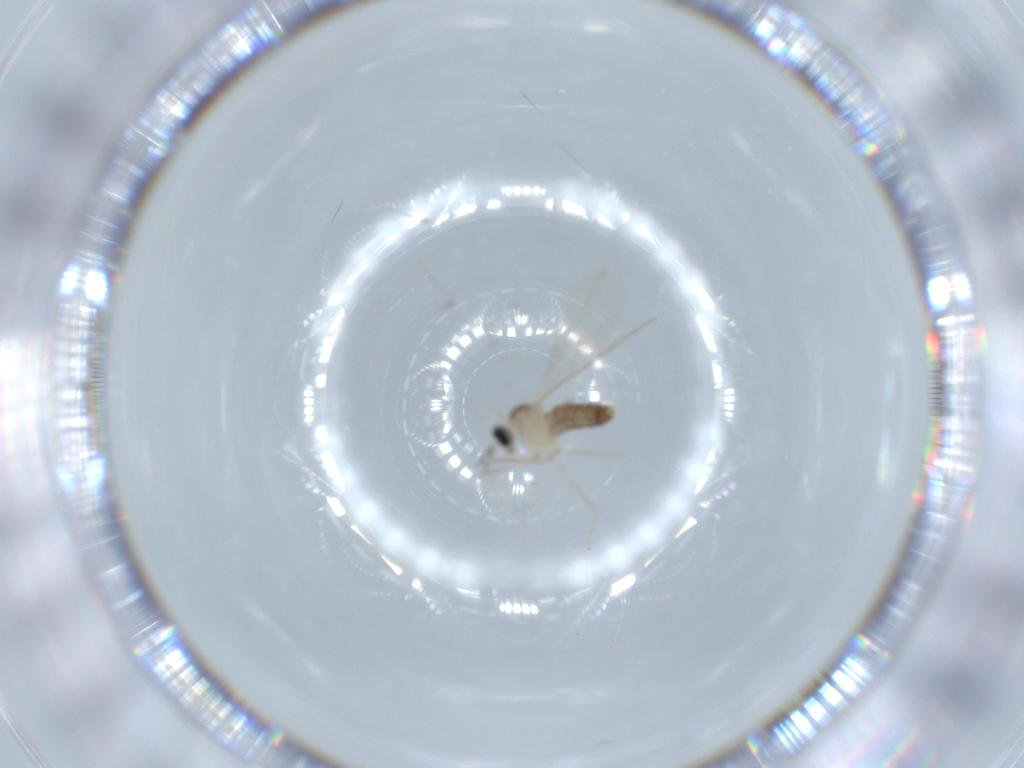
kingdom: Animalia
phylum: Arthropoda
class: Insecta
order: Diptera
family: Cecidomyiidae
